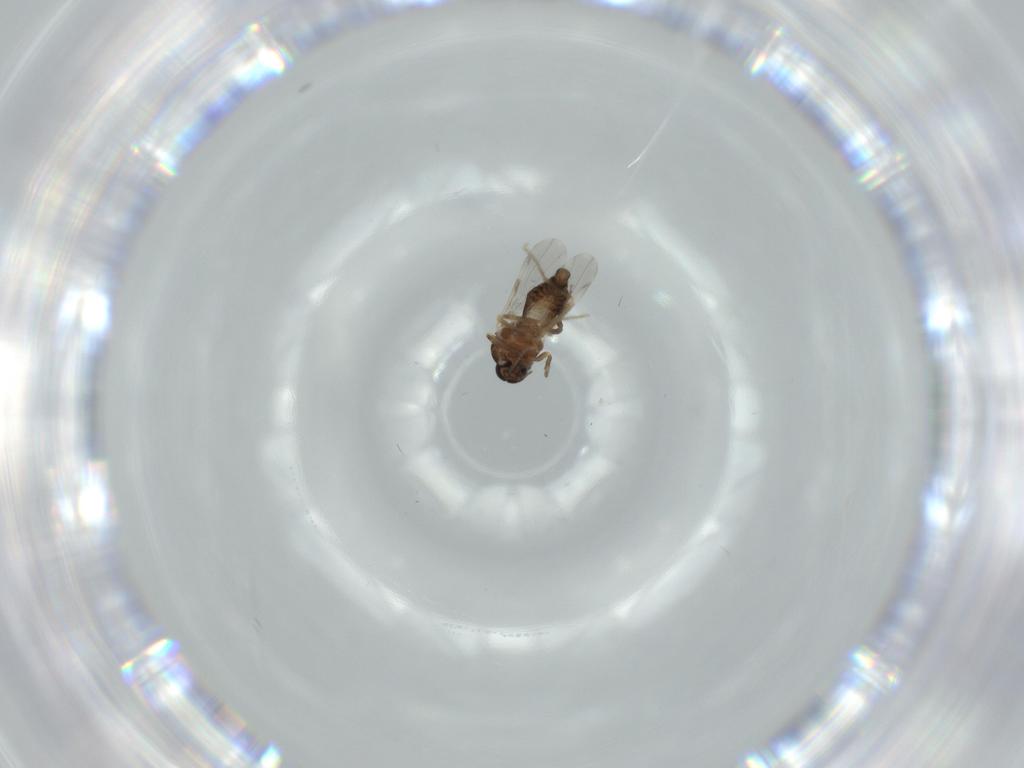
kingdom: Animalia
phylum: Arthropoda
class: Insecta
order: Diptera
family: Ceratopogonidae
